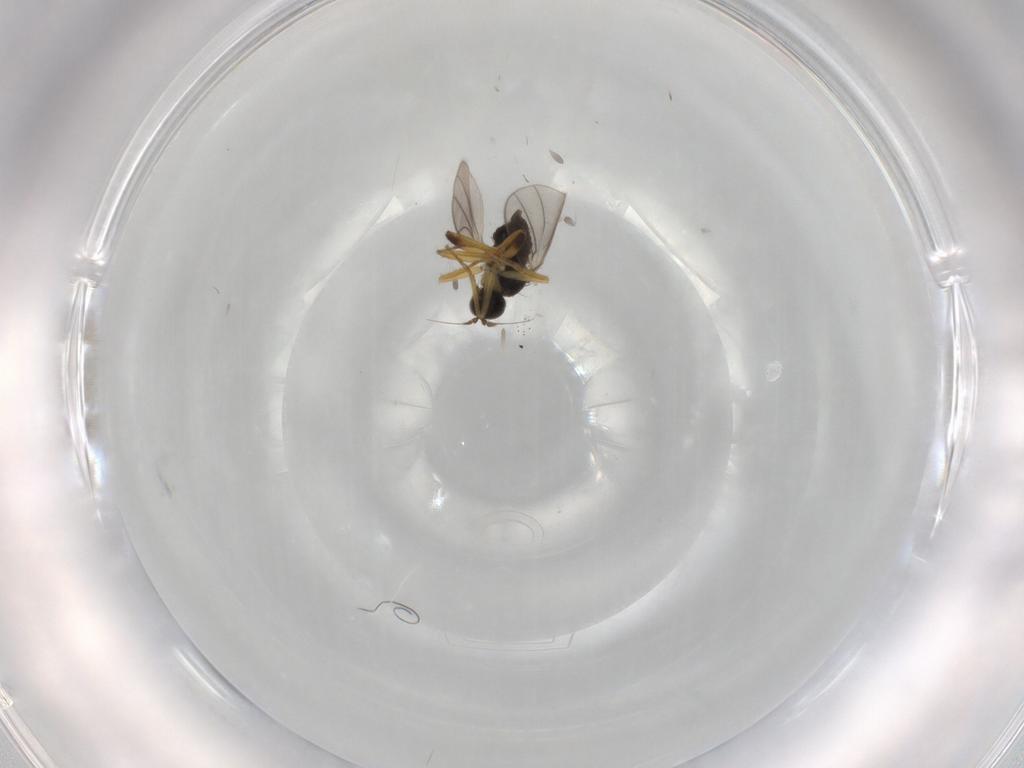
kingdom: Animalia
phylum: Arthropoda
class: Insecta
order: Diptera
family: Hybotidae
